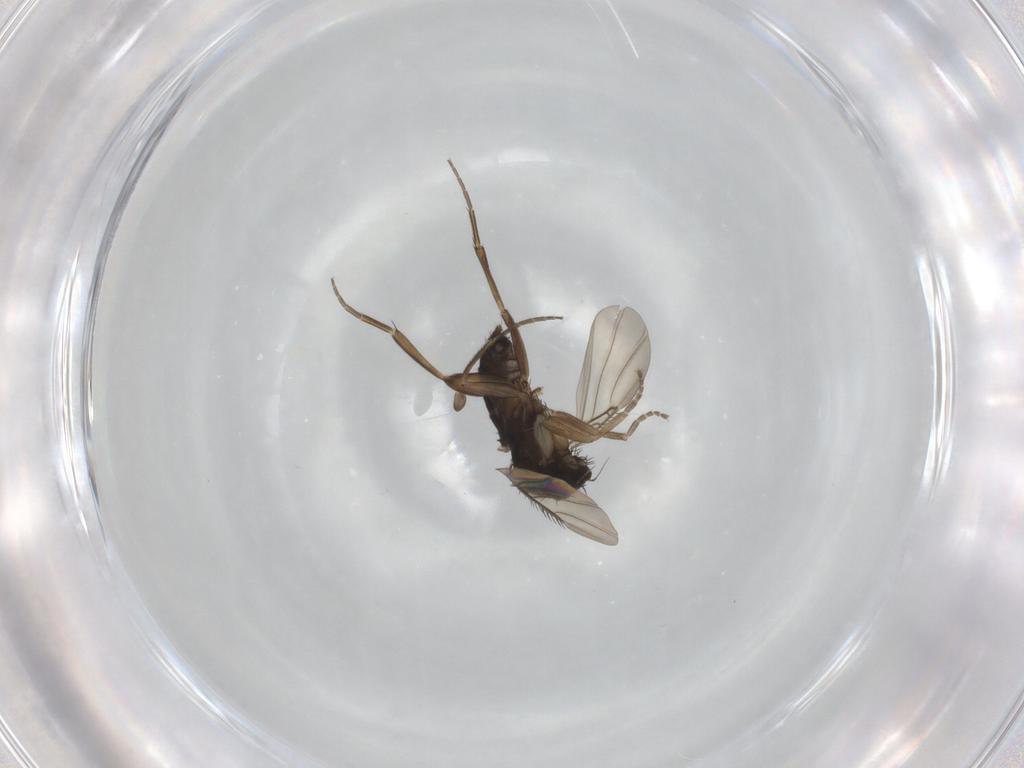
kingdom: Animalia
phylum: Arthropoda
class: Insecta
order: Diptera
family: Phoridae
